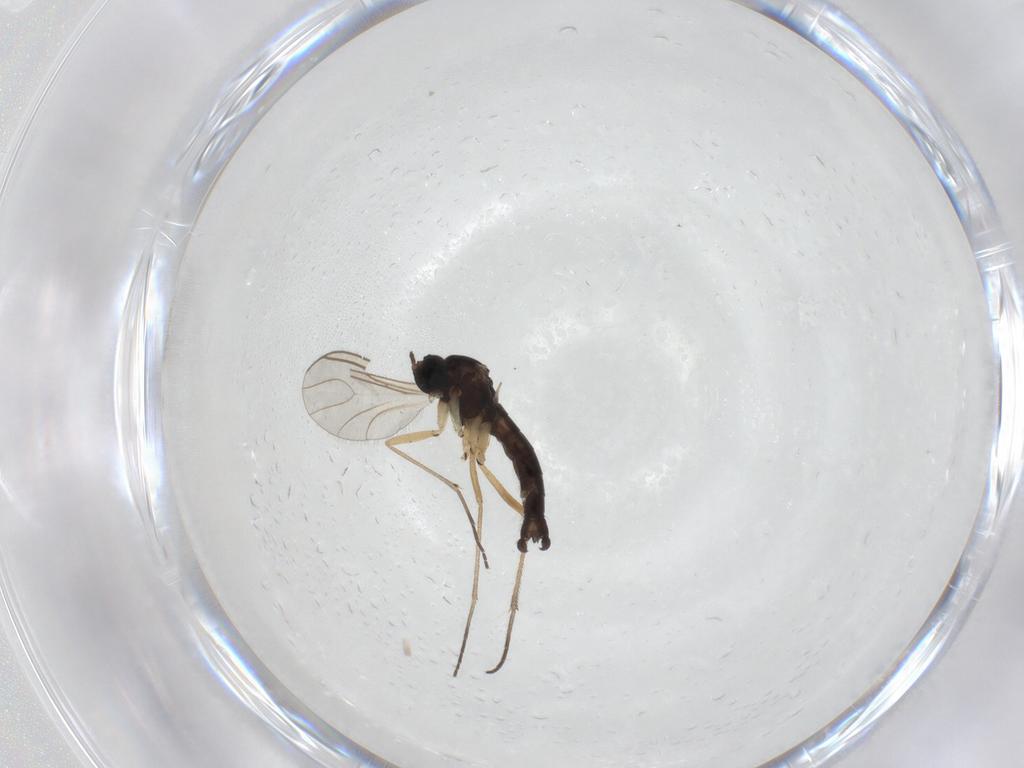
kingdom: Animalia
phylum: Arthropoda
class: Insecta
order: Diptera
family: Sciaridae
